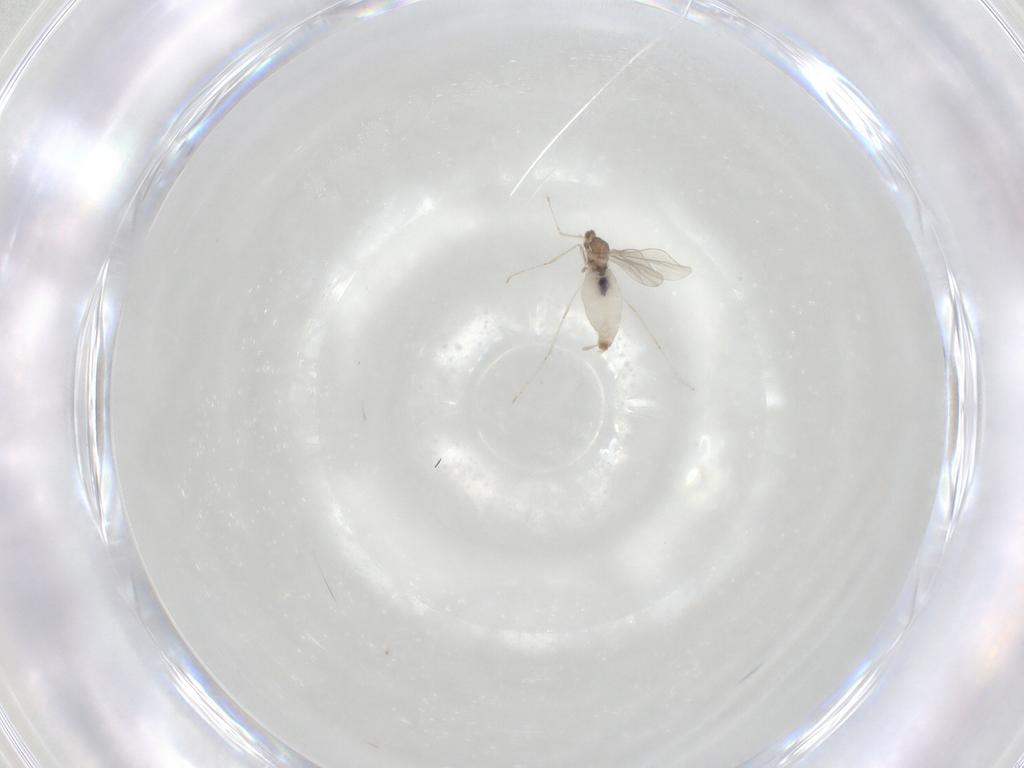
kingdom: Animalia
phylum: Arthropoda
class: Insecta
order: Diptera
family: Cecidomyiidae
